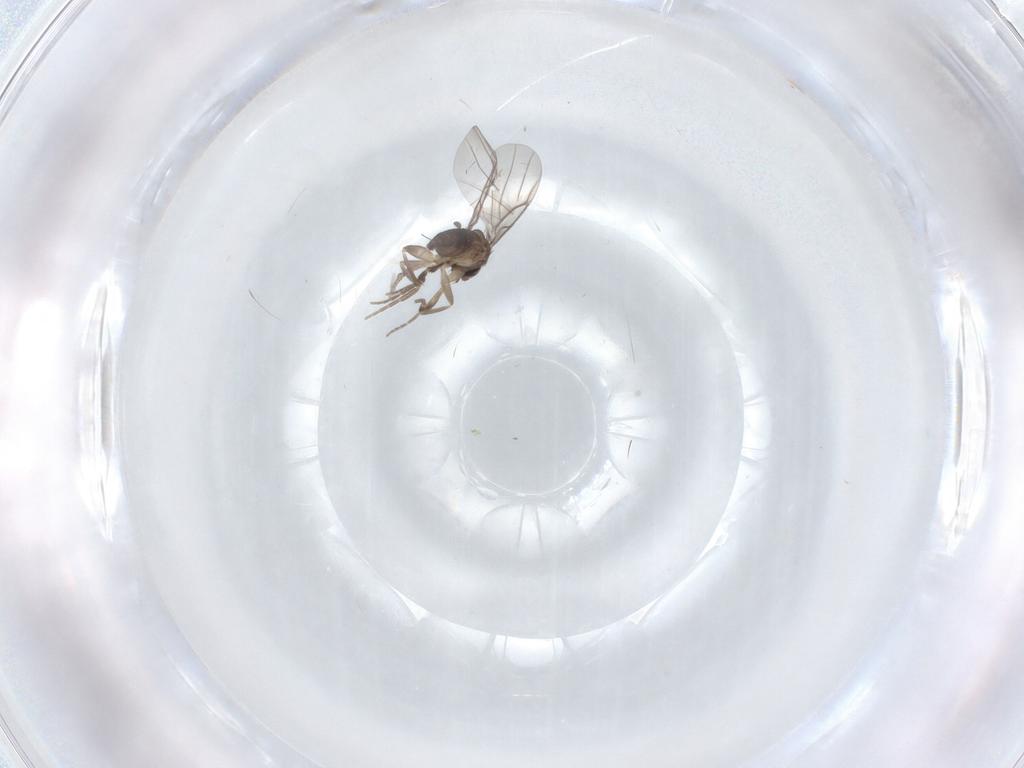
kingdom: Animalia
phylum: Arthropoda
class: Insecta
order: Diptera
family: Phoridae
